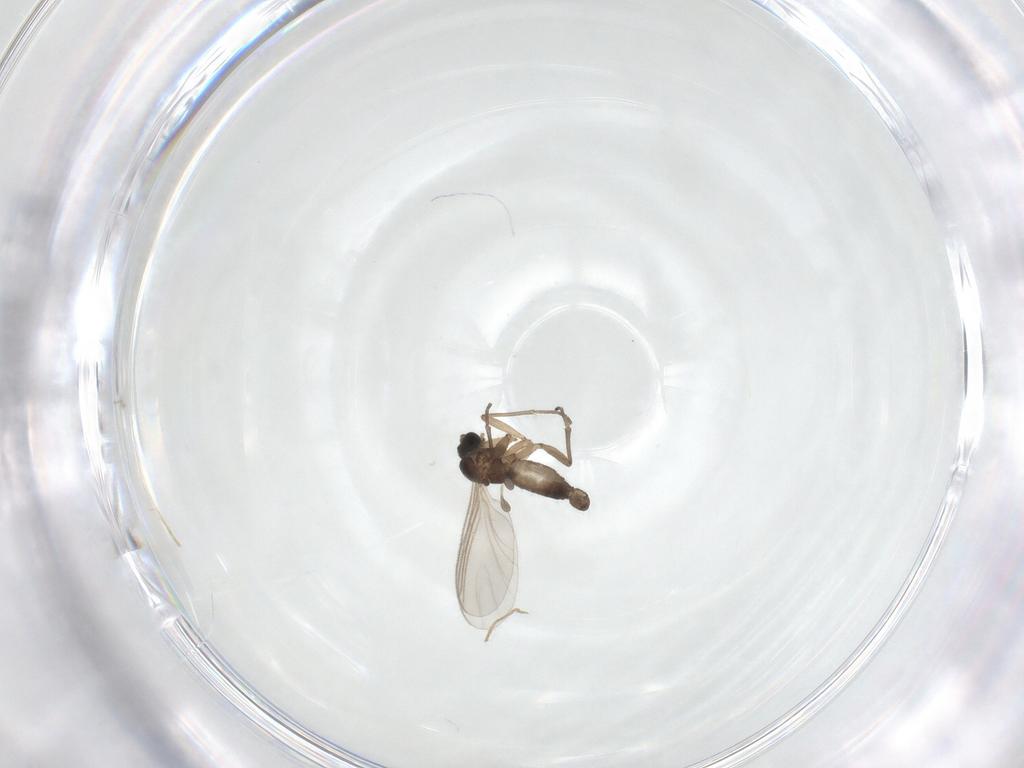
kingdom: Animalia
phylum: Arthropoda
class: Insecta
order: Diptera
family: Sciaridae
